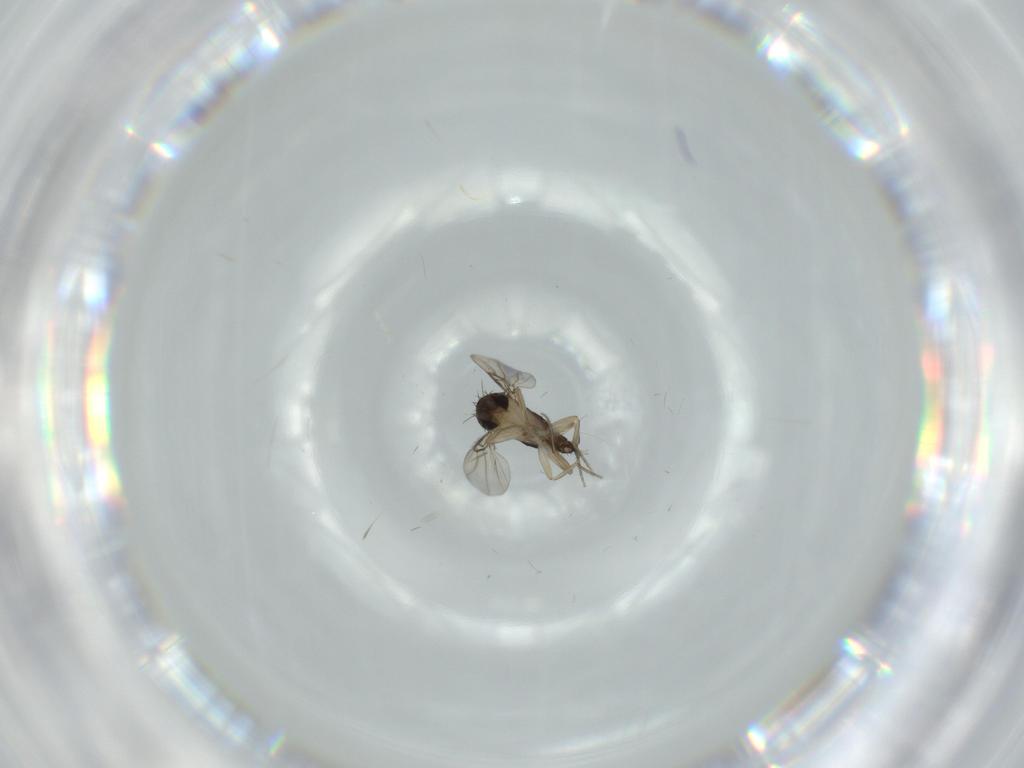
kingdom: Animalia
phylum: Arthropoda
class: Insecta
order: Diptera
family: Phoridae
